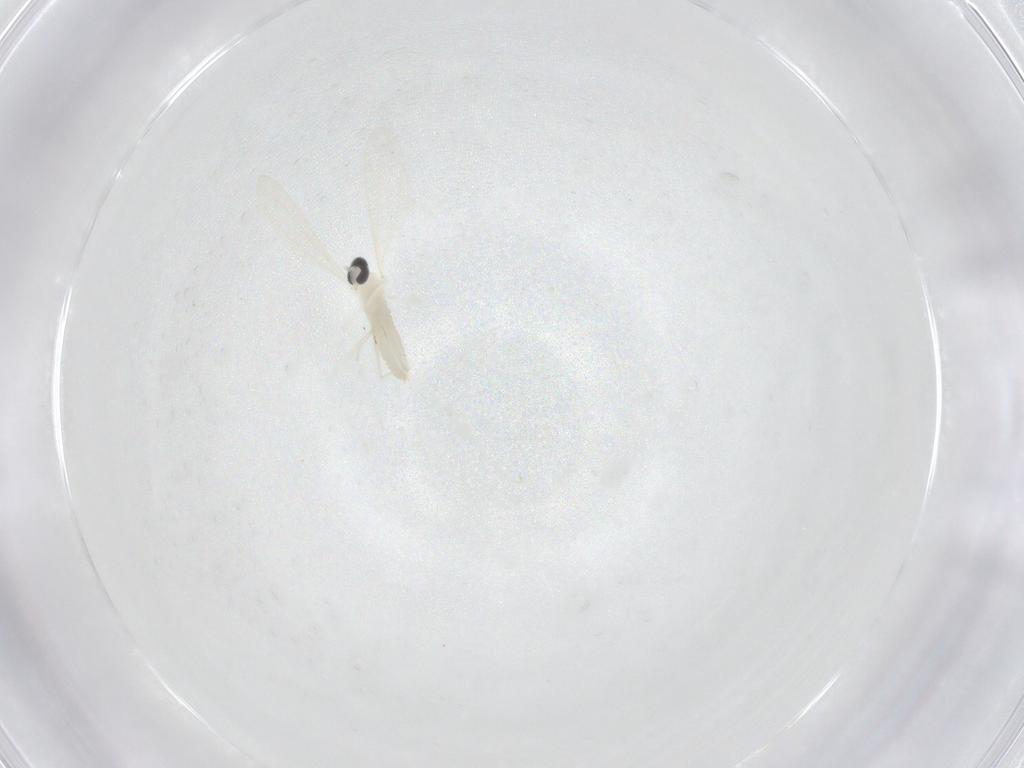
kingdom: Animalia
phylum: Arthropoda
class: Insecta
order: Diptera
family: Cecidomyiidae
